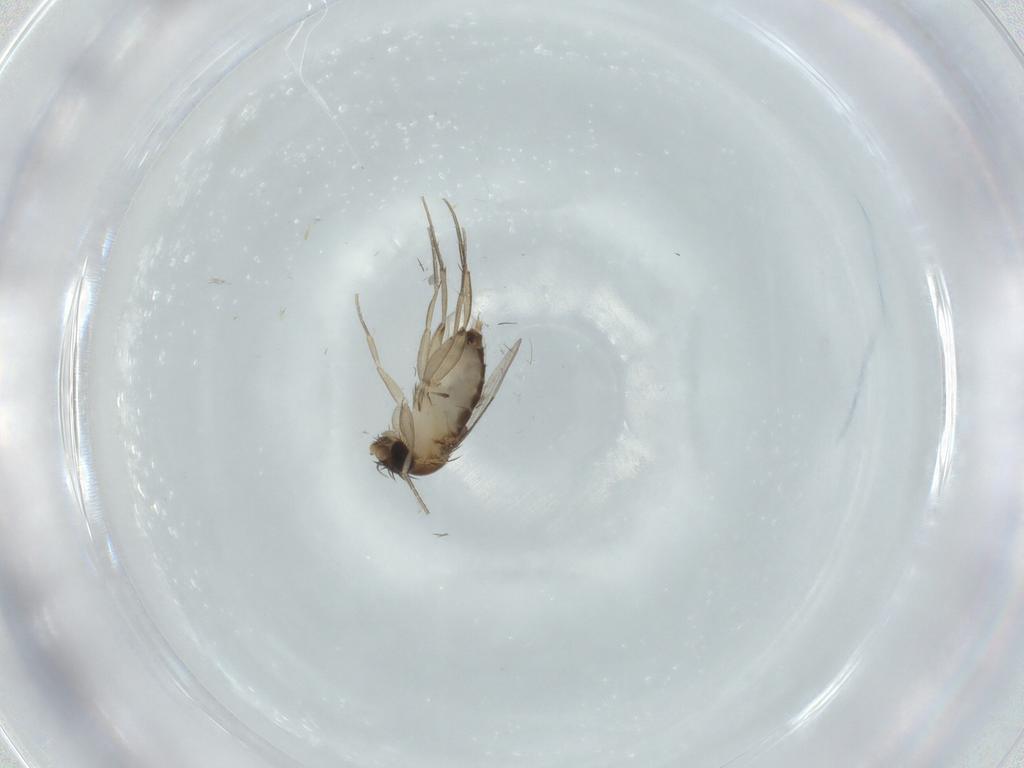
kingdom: Animalia
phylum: Arthropoda
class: Insecta
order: Diptera
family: Phoridae
